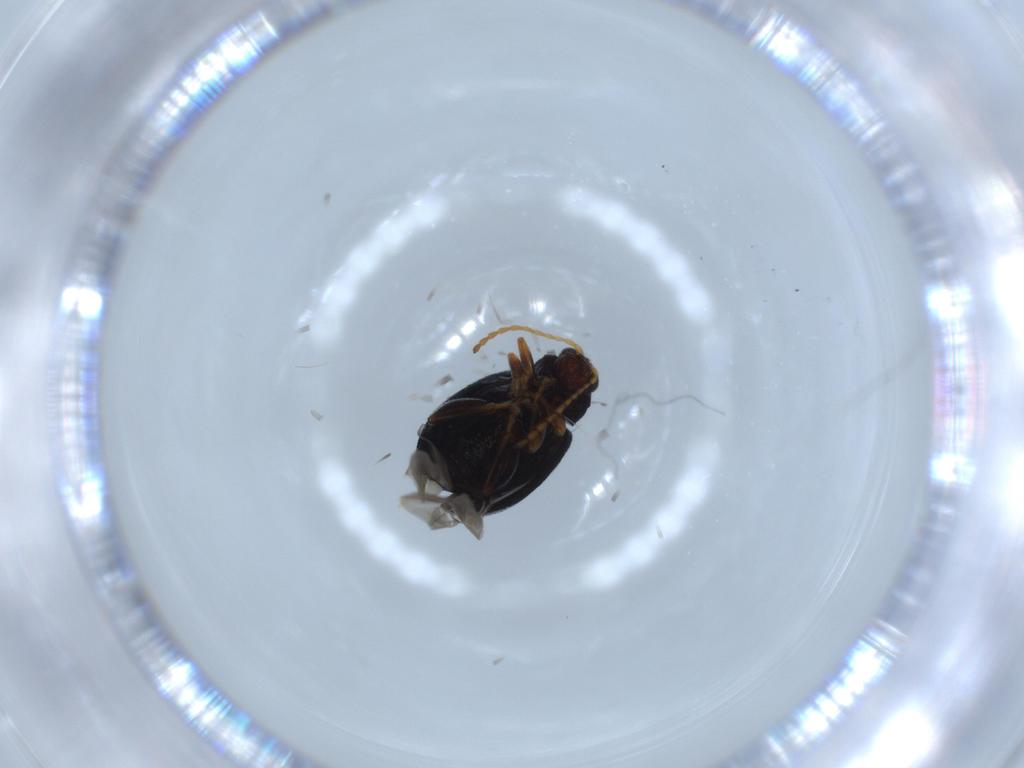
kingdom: Animalia
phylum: Arthropoda
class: Insecta
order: Coleoptera
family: Chrysomelidae
